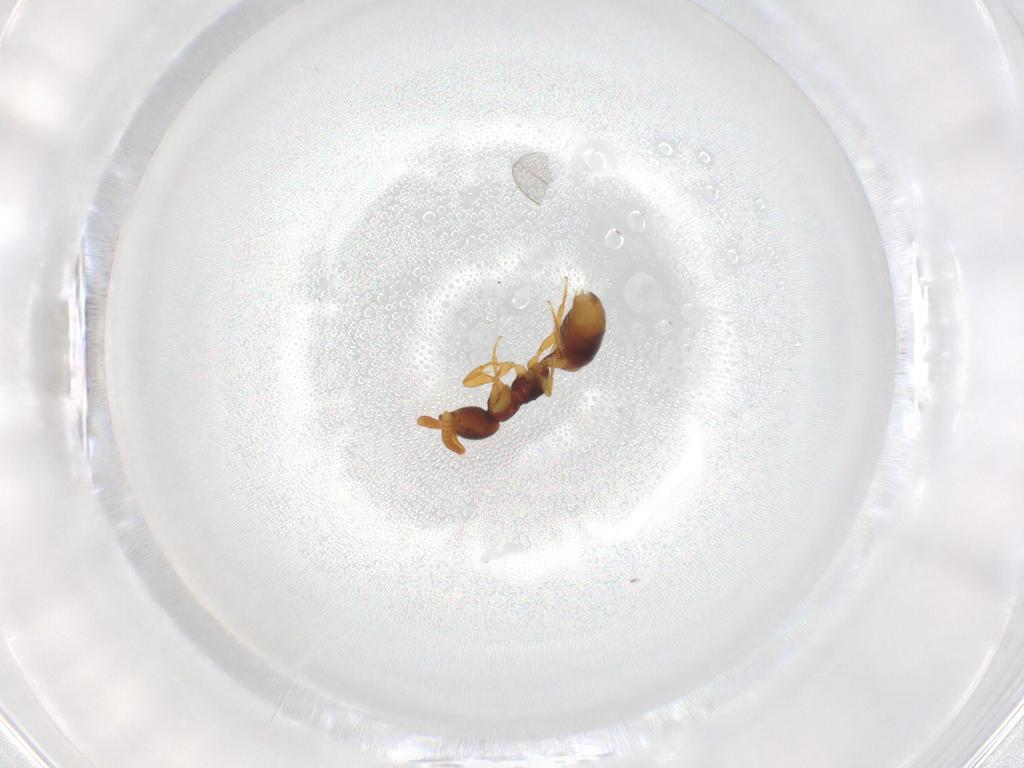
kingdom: Animalia
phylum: Arthropoda
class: Insecta
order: Hymenoptera
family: Bethylidae
